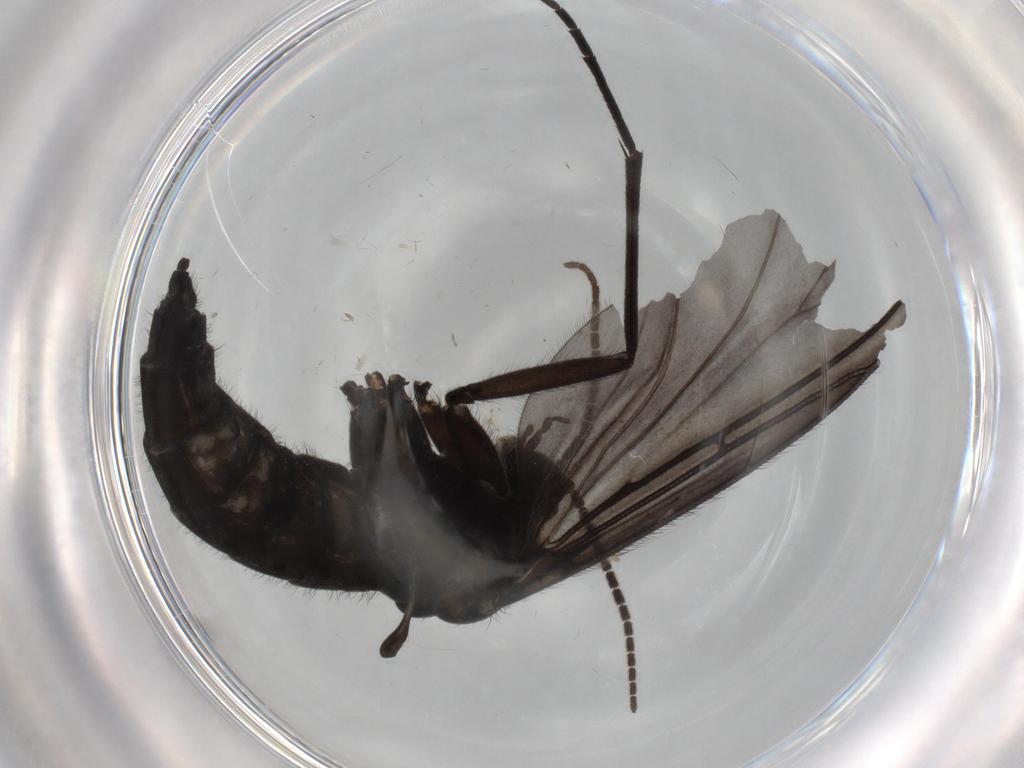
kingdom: Animalia
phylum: Arthropoda
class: Insecta
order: Diptera
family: Sciaridae
